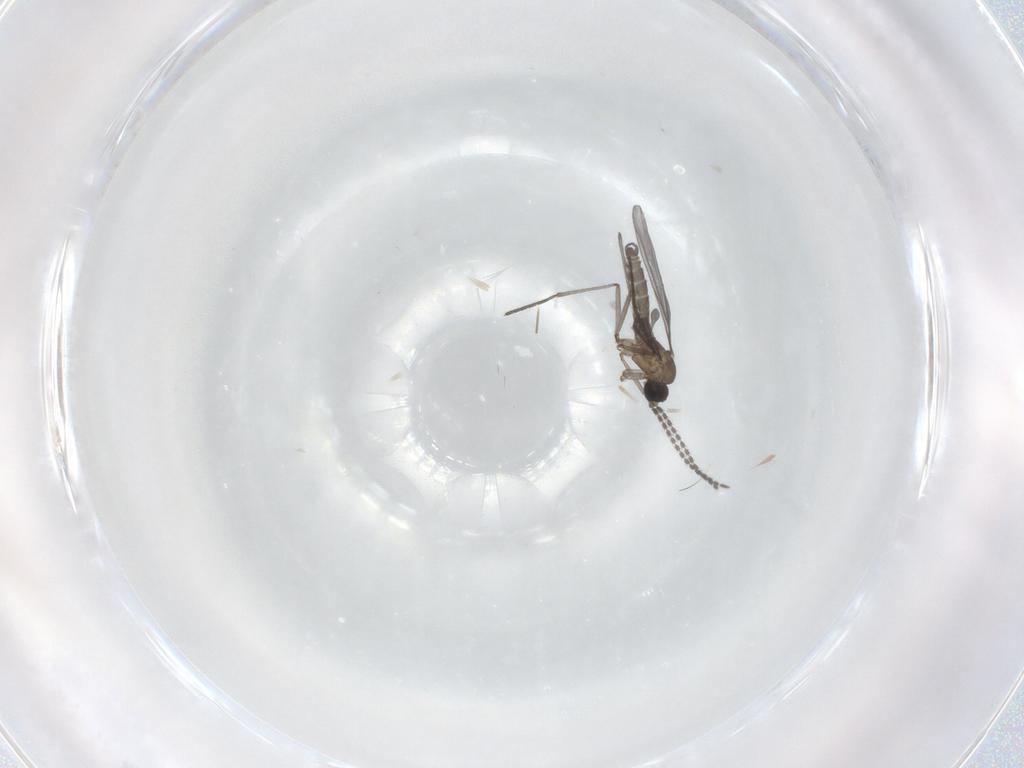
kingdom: Animalia
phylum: Arthropoda
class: Insecta
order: Diptera
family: Sciaridae
